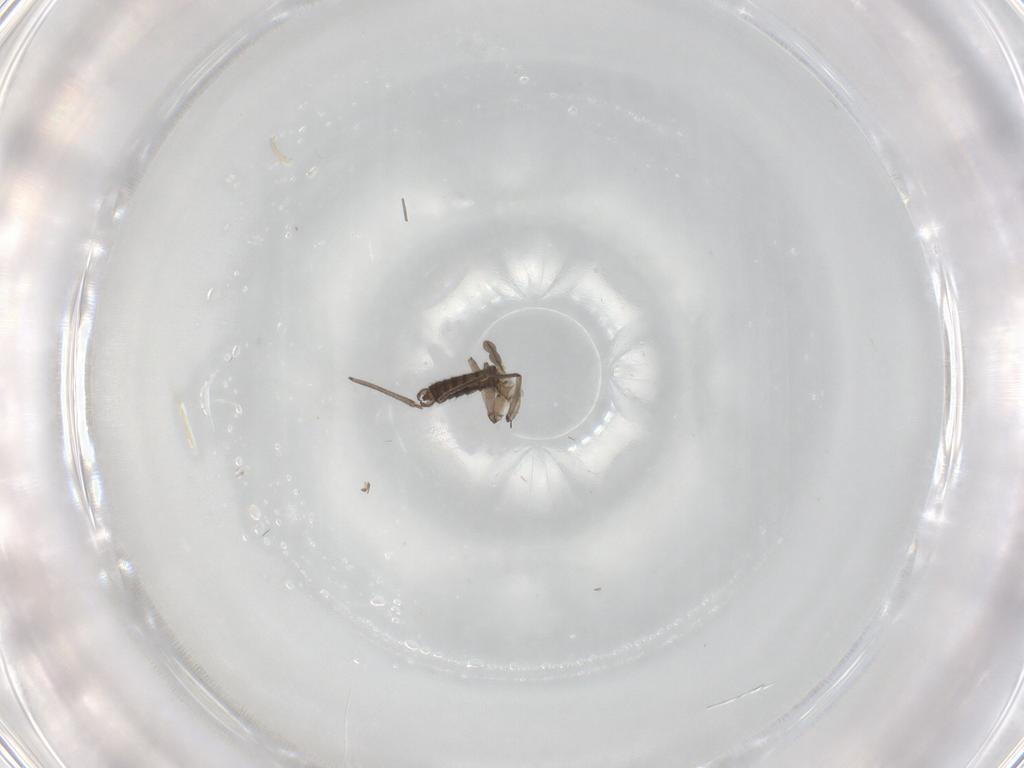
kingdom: Animalia
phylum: Arthropoda
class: Insecta
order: Diptera
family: Ceratopogonidae
